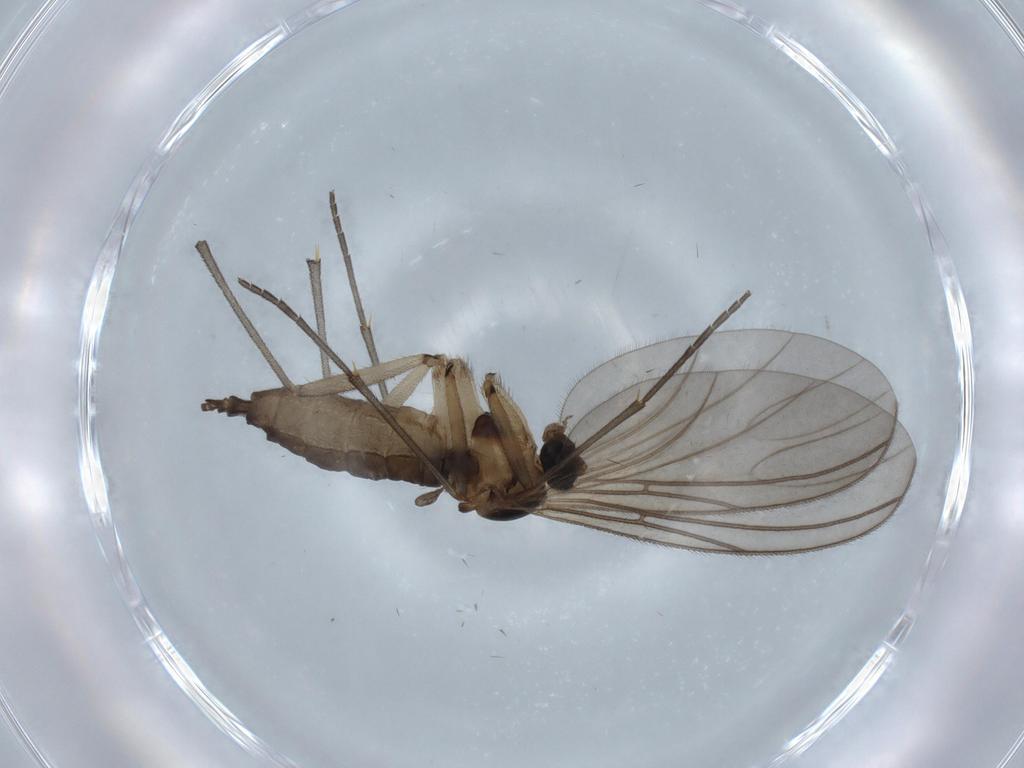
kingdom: Animalia
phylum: Arthropoda
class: Insecta
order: Diptera
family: Sciaridae
